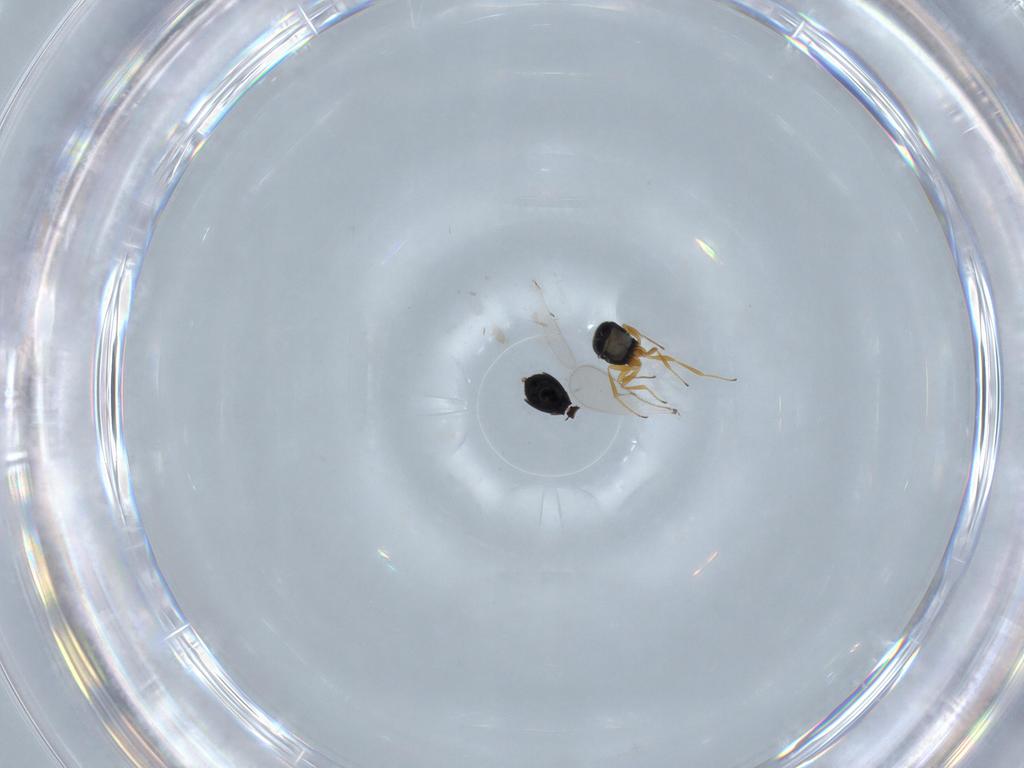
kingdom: Animalia
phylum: Arthropoda
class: Insecta
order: Hymenoptera
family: Scelionidae
